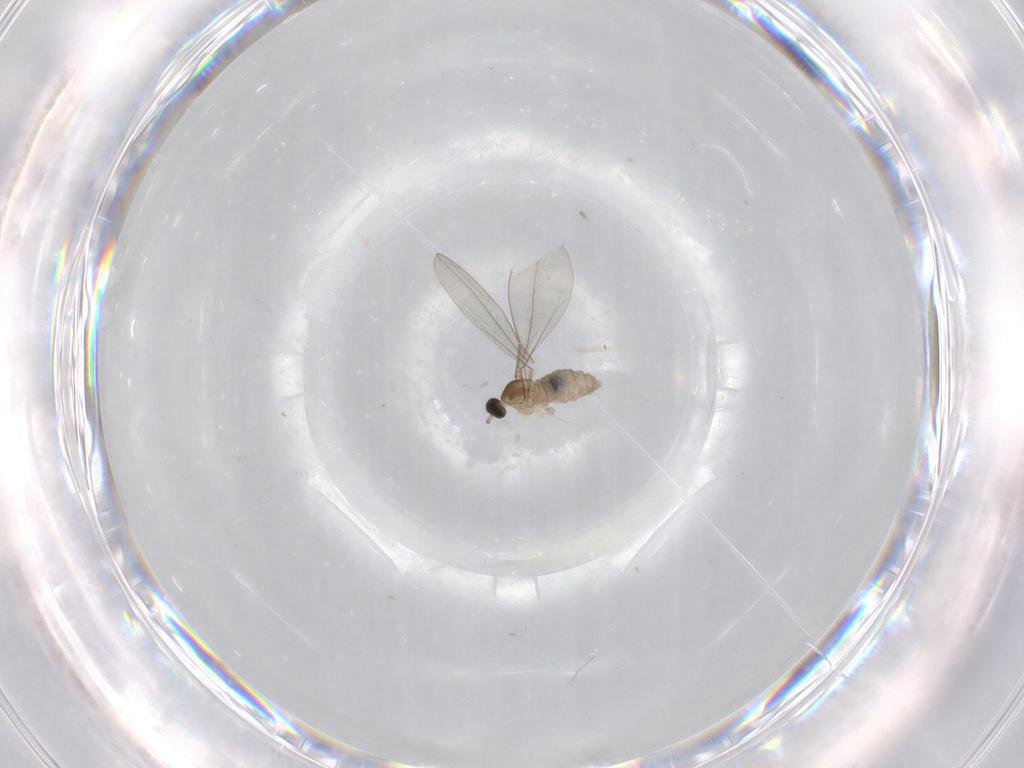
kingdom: Animalia
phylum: Arthropoda
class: Insecta
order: Diptera
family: Cecidomyiidae
